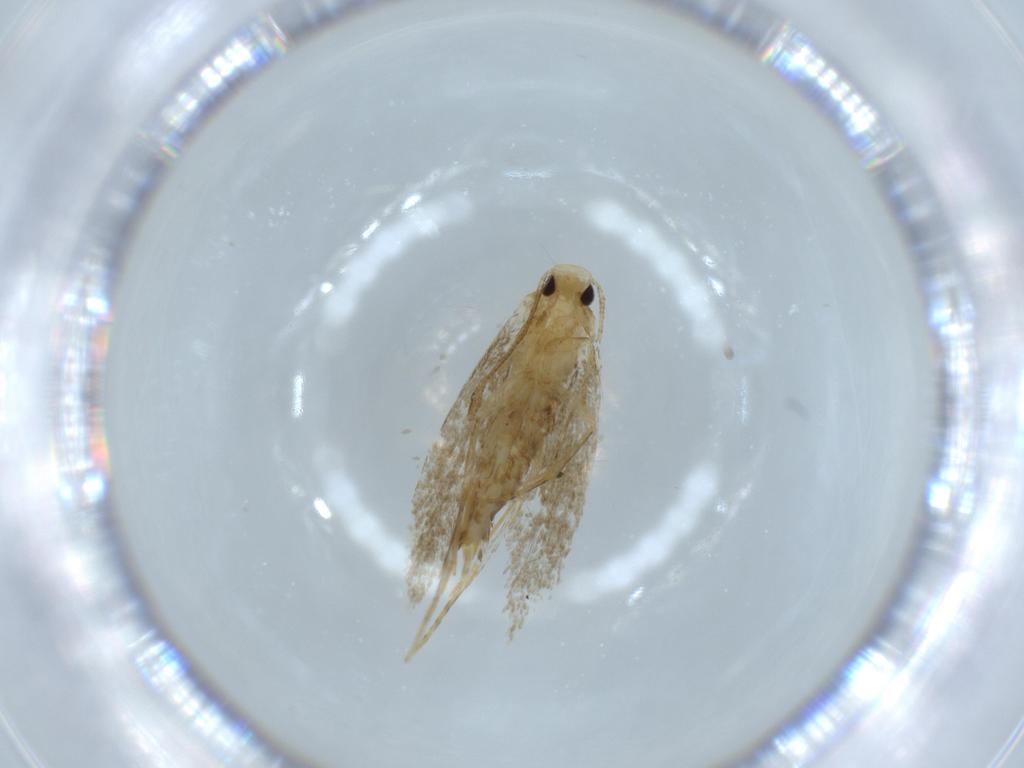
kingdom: Animalia
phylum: Arthropoda
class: Insecta
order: Lepidoptera
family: Tineidae
